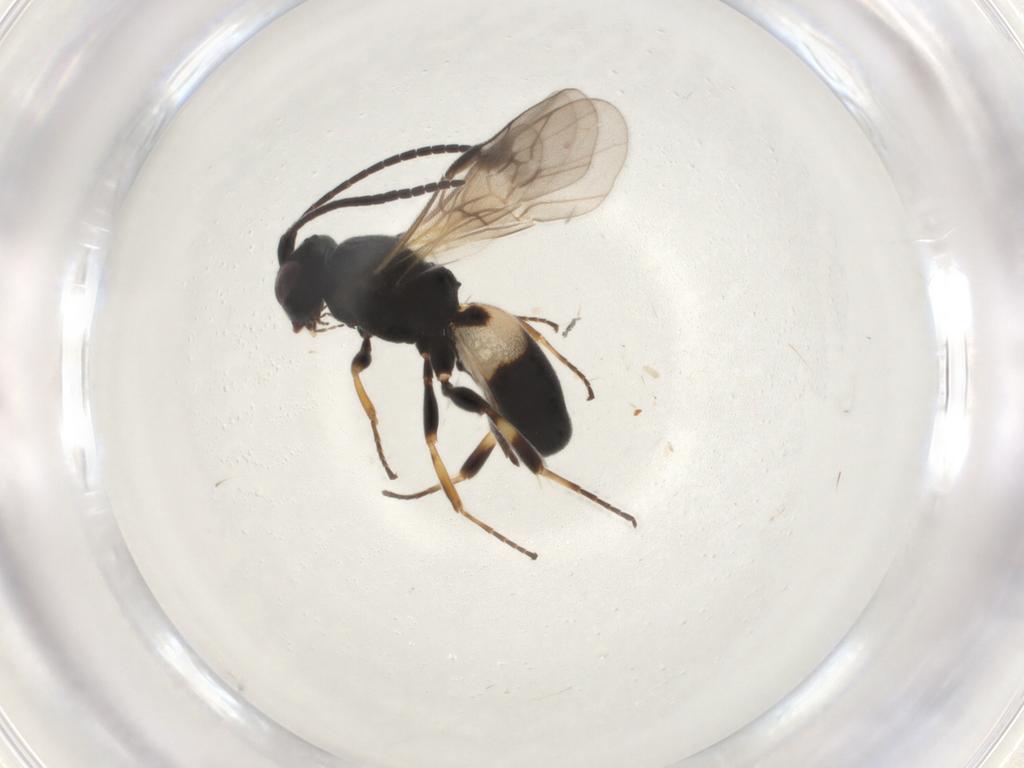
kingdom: Animalia
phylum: Arthropoda
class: Insecta
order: Hymenoptera
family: Braconidae
